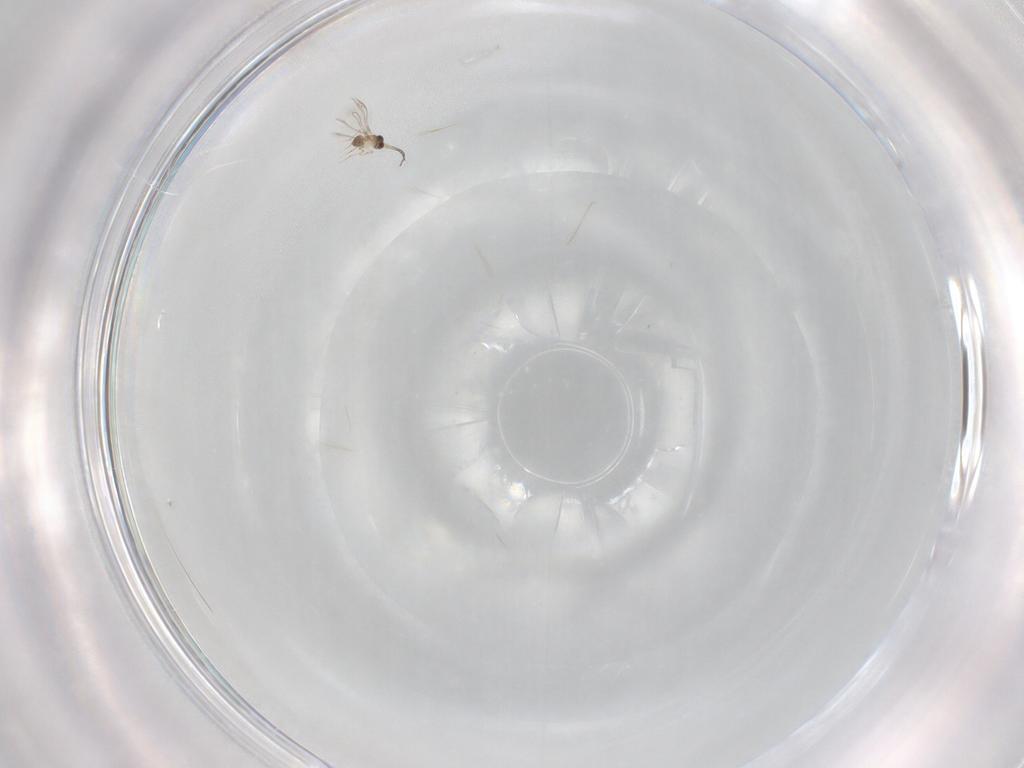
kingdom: Animalia
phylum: Arthropoda
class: Insecta
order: Hymenoptera
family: Mymaridae
